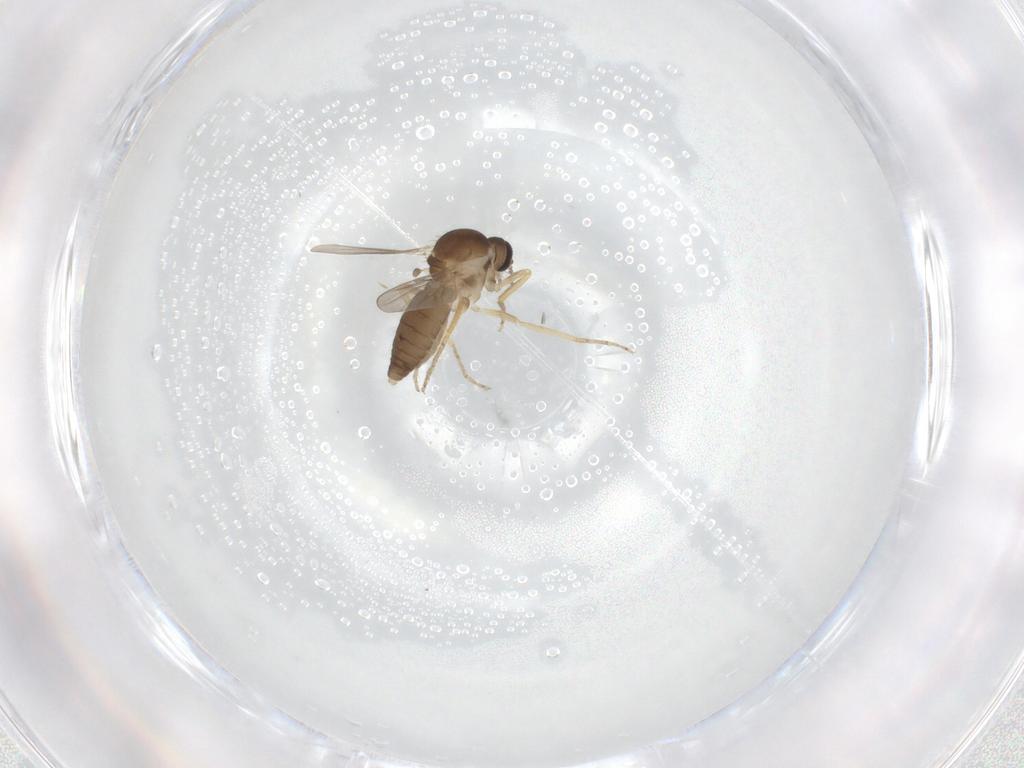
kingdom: Animalia
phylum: Arthropoda
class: Insecta
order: Diptera
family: Ceratopogonidae
